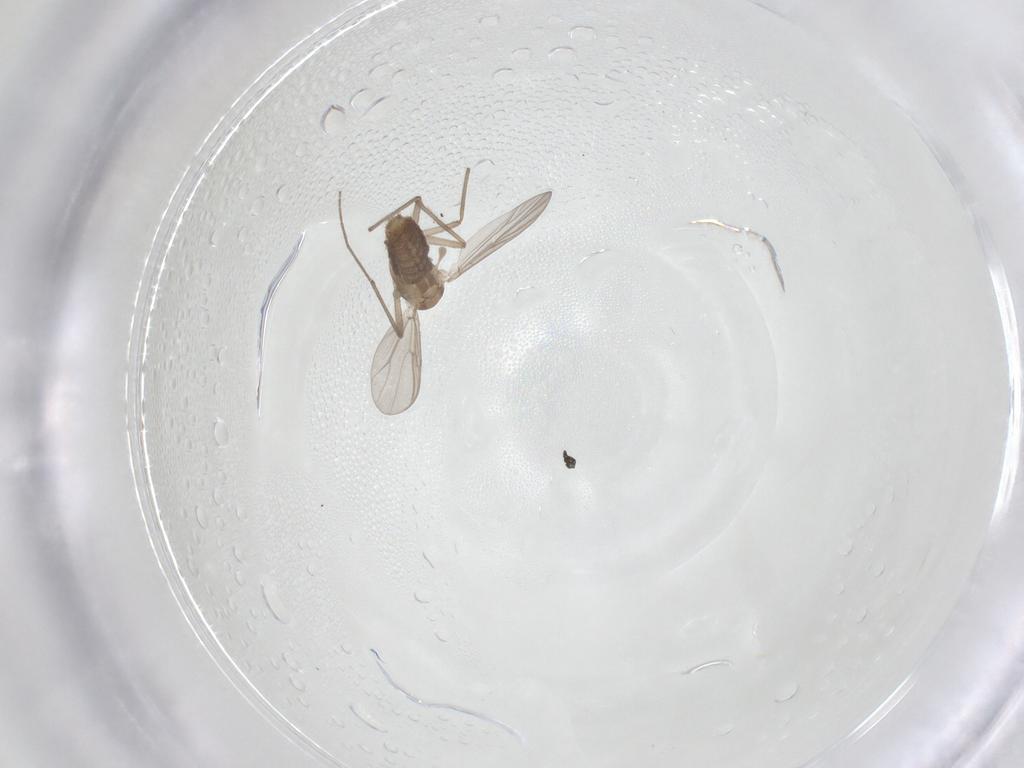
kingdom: Animalia
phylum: Arthropoda
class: Insecta
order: Diptera
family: Chironomidae
